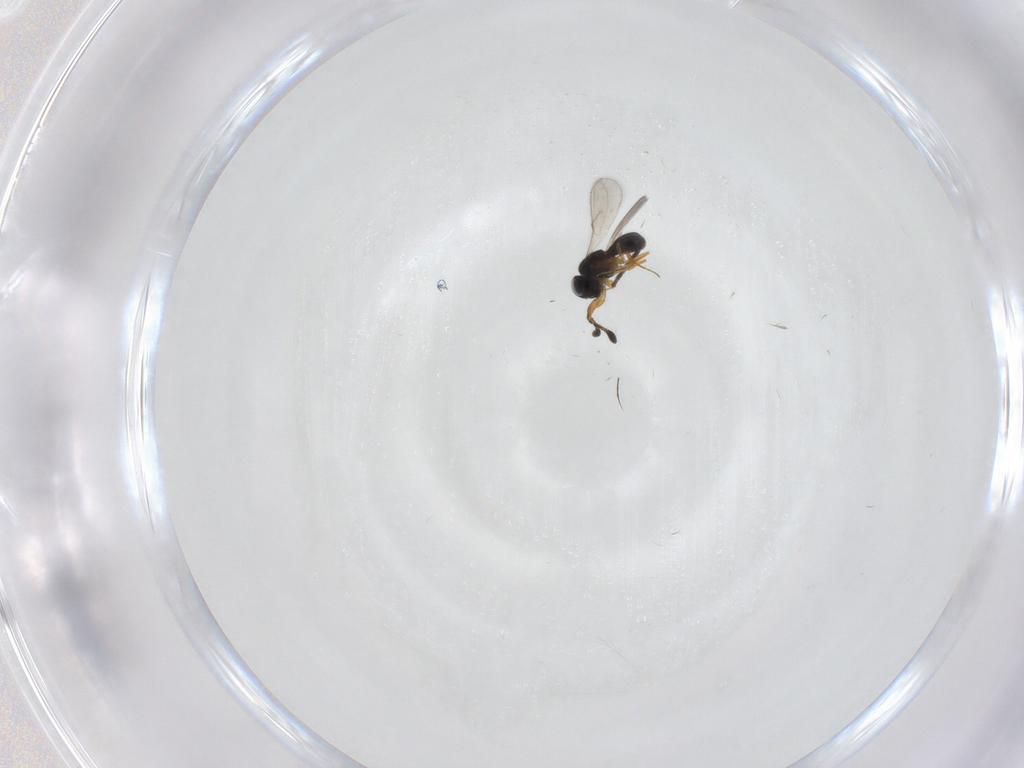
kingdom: Animalia
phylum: Arthropoda
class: Insecta
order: Hymenoptera
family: Scelionidae
